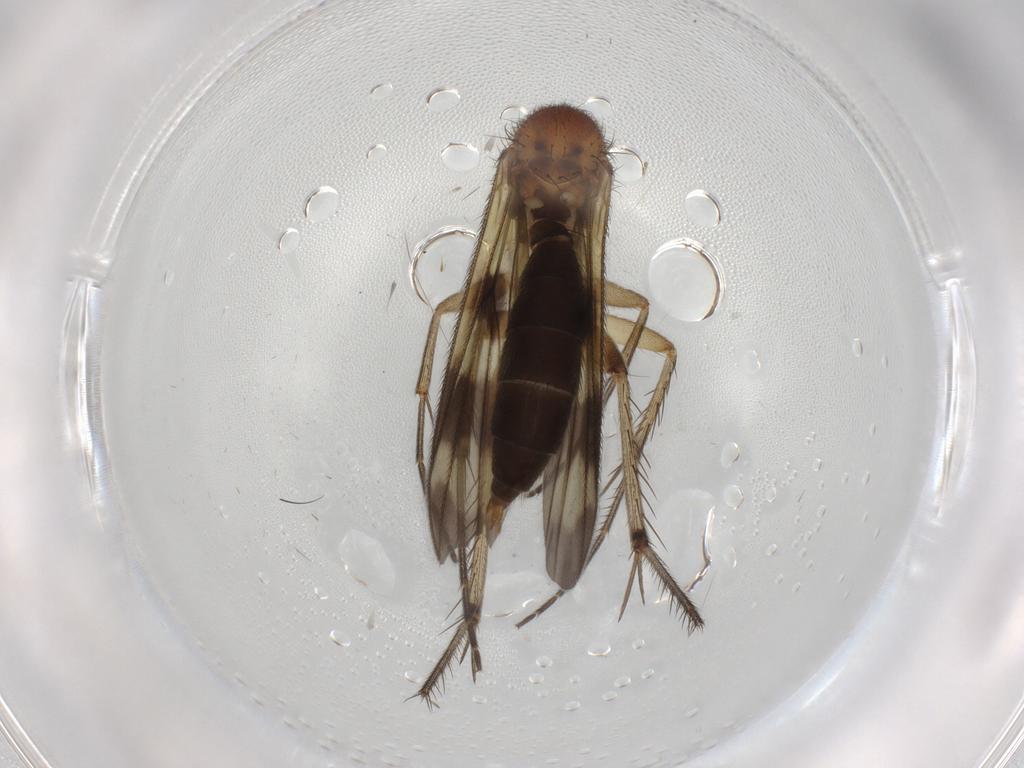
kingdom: Animalia
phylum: Arthropoda
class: Insecta
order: Diptera
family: Mycetophilidae
